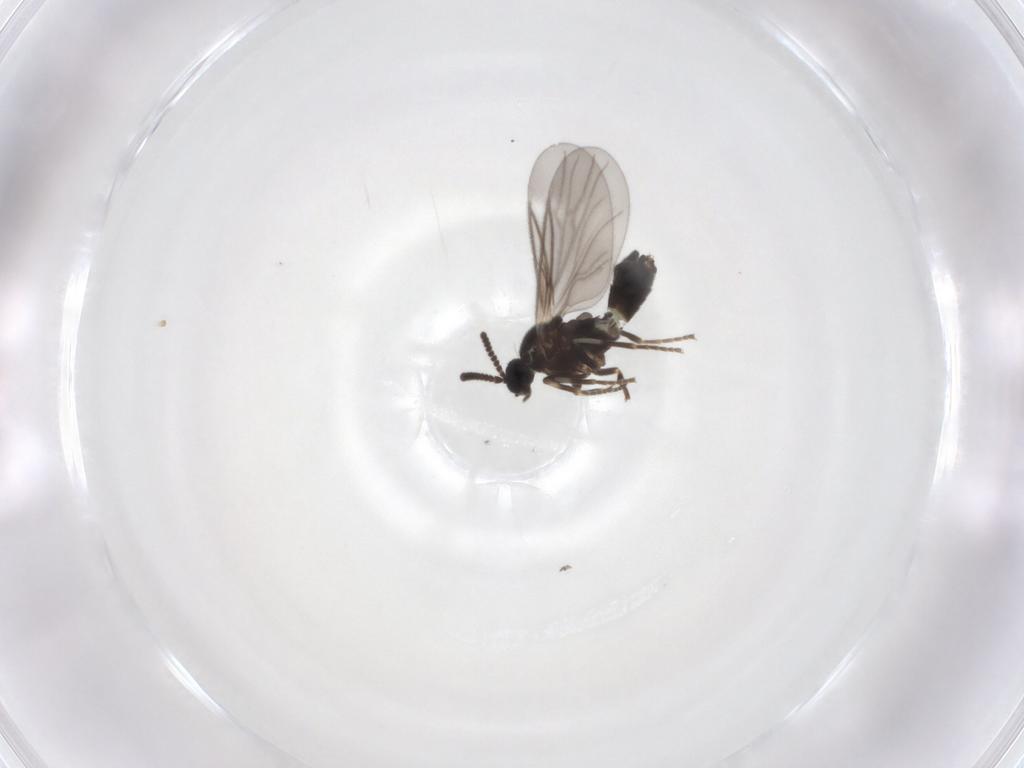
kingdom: Animalia
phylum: Arthropoda
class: Insecta
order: Diptera
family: Scatopsidae
